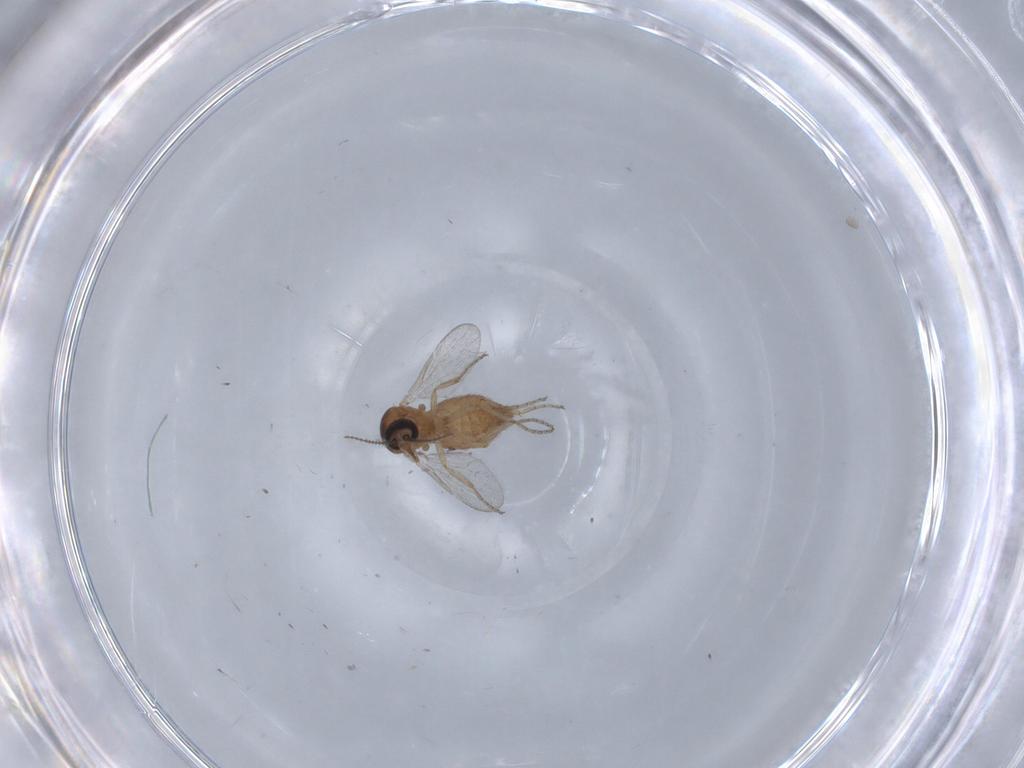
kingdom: Animalia
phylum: Arthropoda
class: Insecta
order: Diptera
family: Ceratopogonidae
